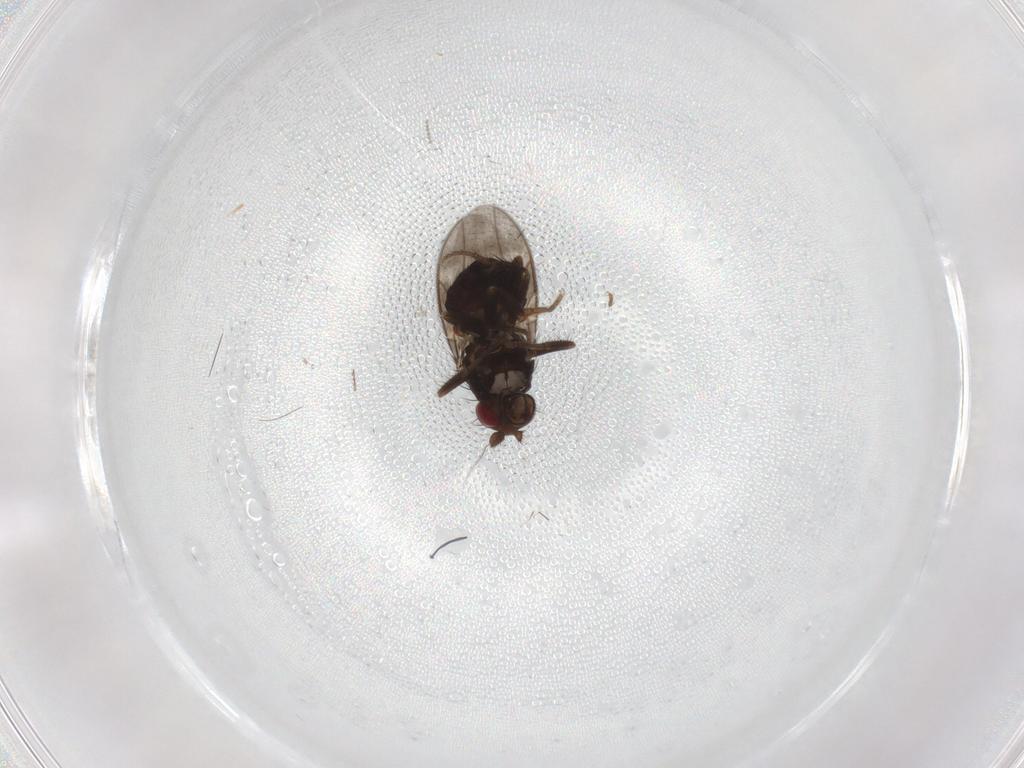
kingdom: Animalia
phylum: Arthropoda
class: Insecta
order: Diptera
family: Sphaeroceridae
